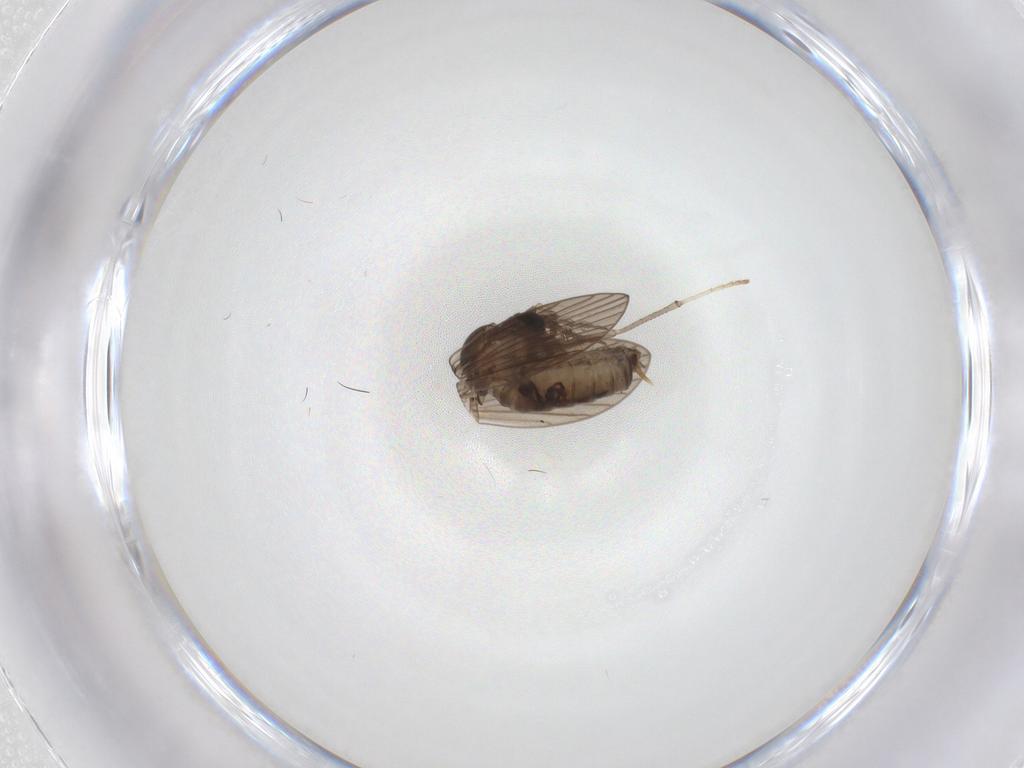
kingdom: Animalia
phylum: Arthropoda
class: Insecta
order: Diptera
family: Psychodidae
